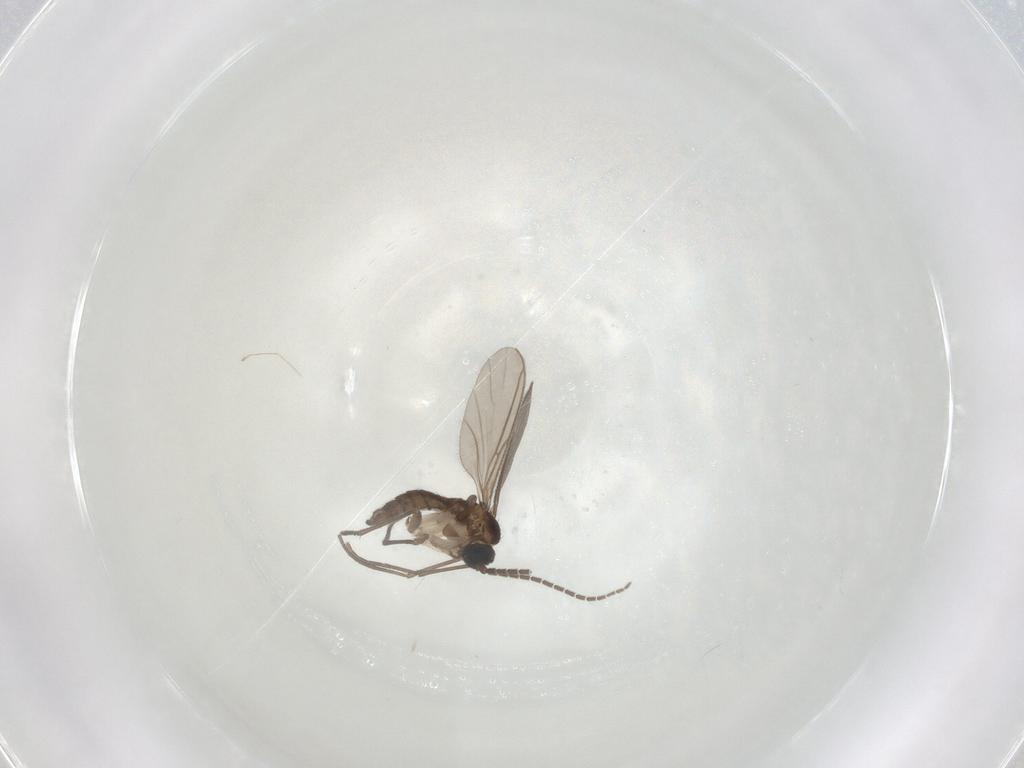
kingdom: Animalia
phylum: Arthropoda
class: Insecta
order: Diptera
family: Sciaridae
